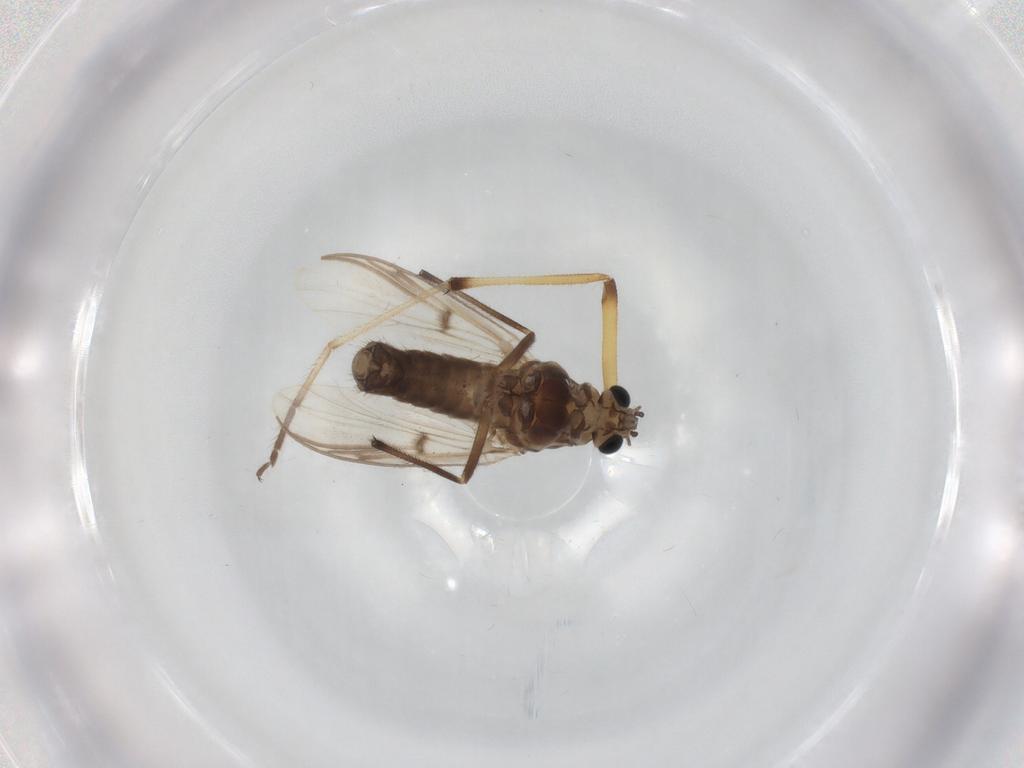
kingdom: Animalia
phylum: Arthropoda
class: Insecta
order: Diptera
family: Chironomidae
